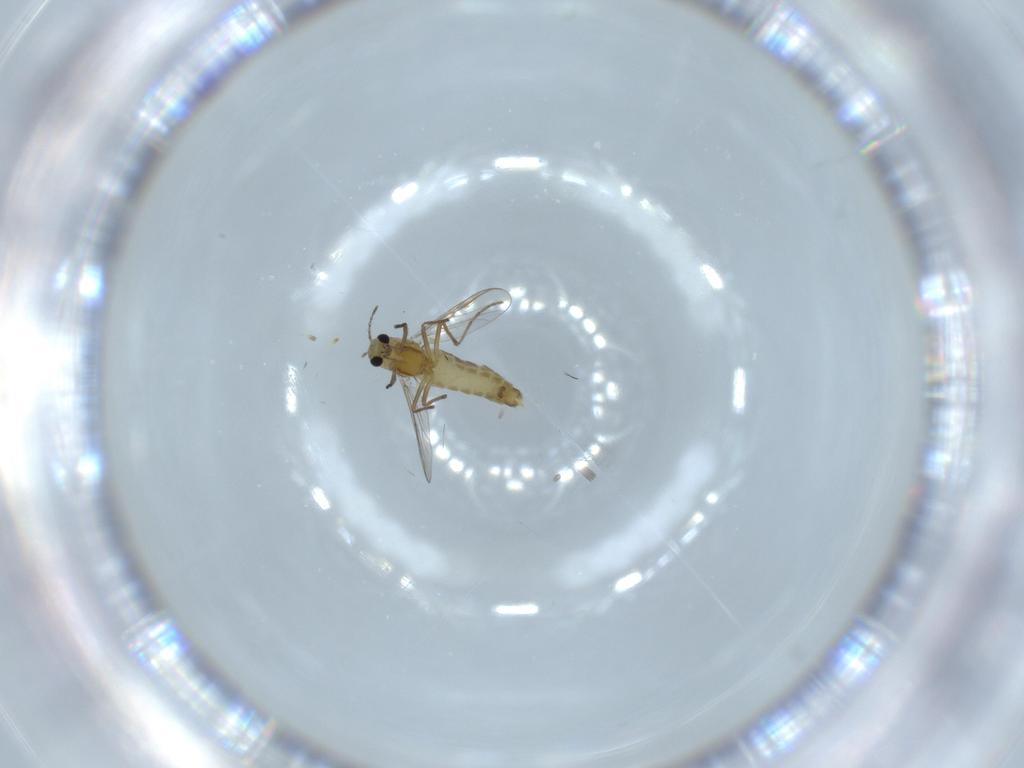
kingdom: Animalia
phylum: Arthropoda
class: Insecta
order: Diptera
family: Chironomidae
